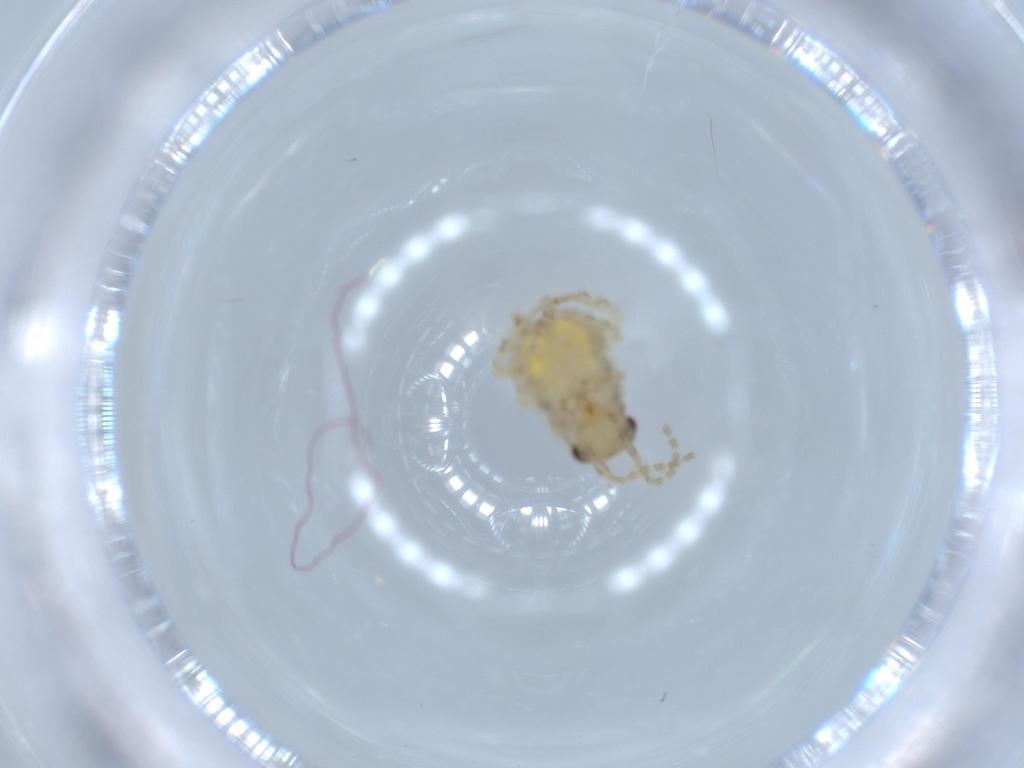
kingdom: Animalia
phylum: Arthropoda
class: Insecta
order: Blattodea
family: Ectobiidae
